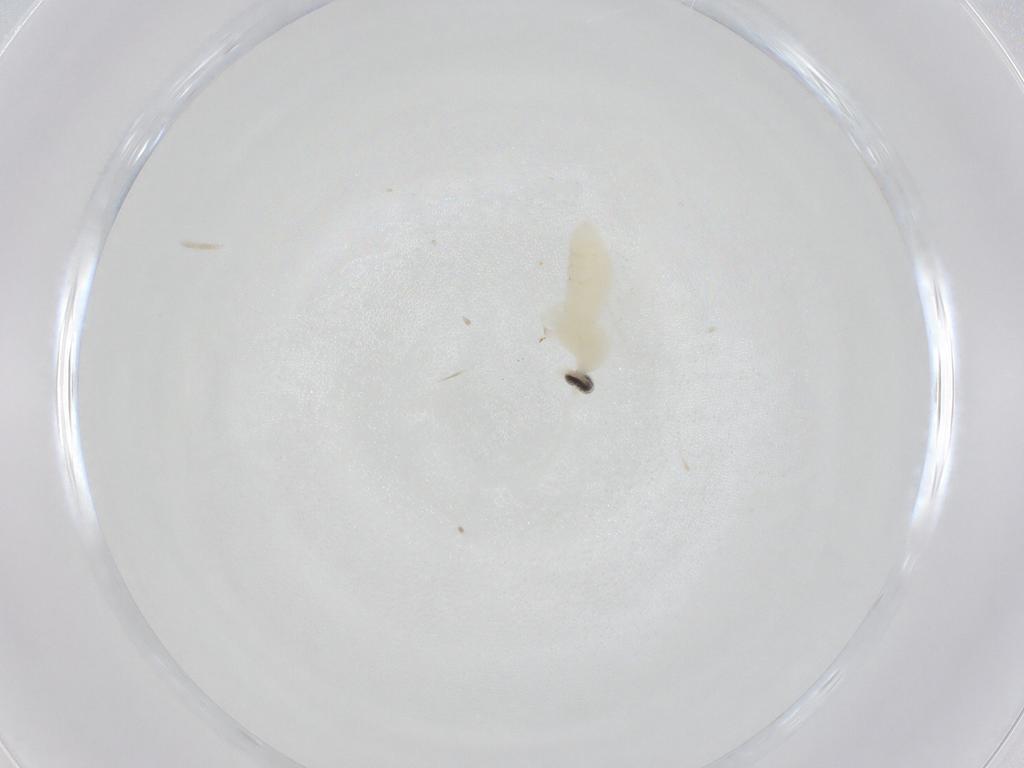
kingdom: Animalia
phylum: Arthropoda
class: Insecta
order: Lepidoptera
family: Erebidae
